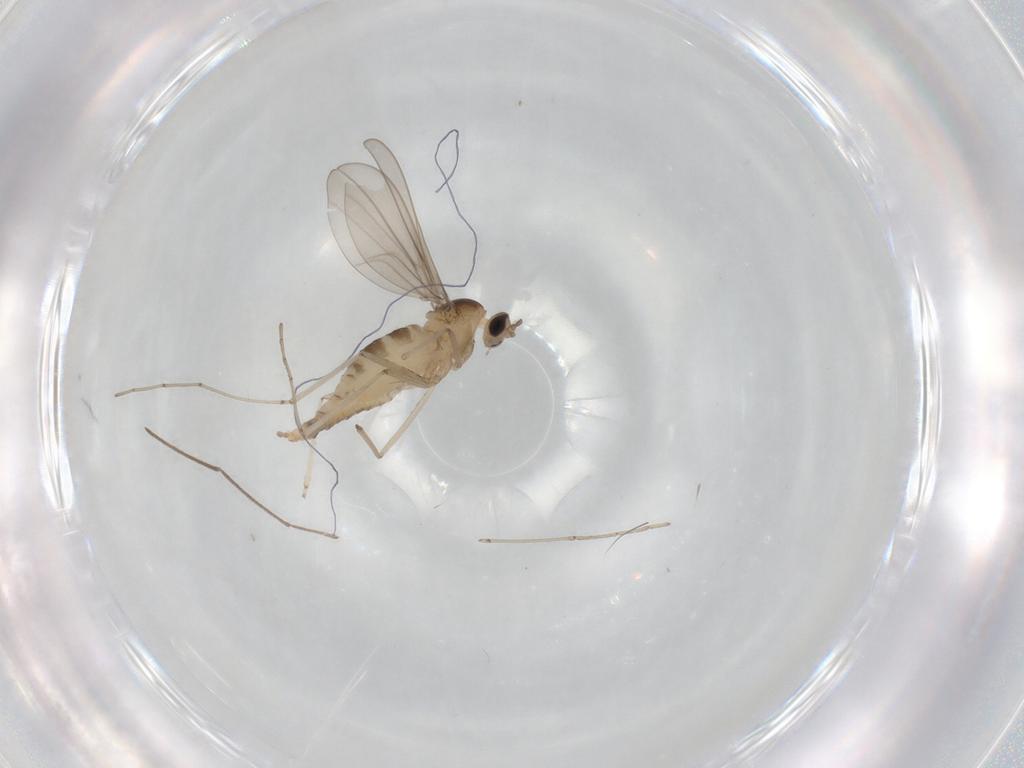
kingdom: Animalia
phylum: Arthropoda
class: Insecta
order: Diptera
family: Cecidomyiidae
